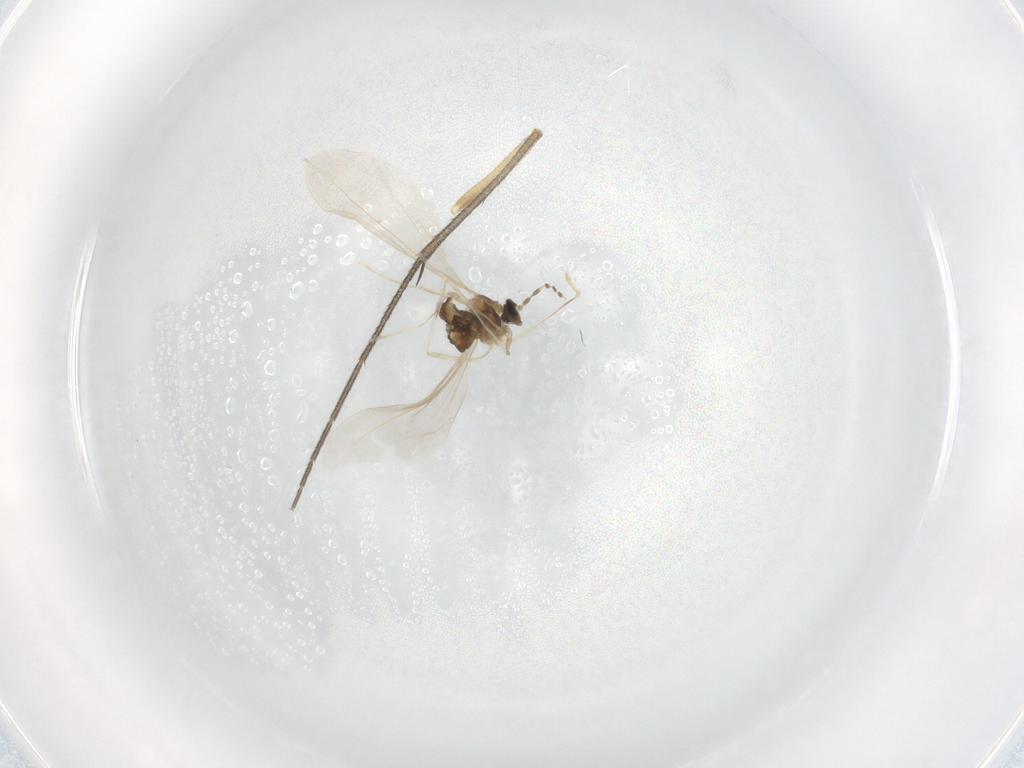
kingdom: Animalia
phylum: Arthropoda
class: Insecta
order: Diptera
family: Mycetophilidae
